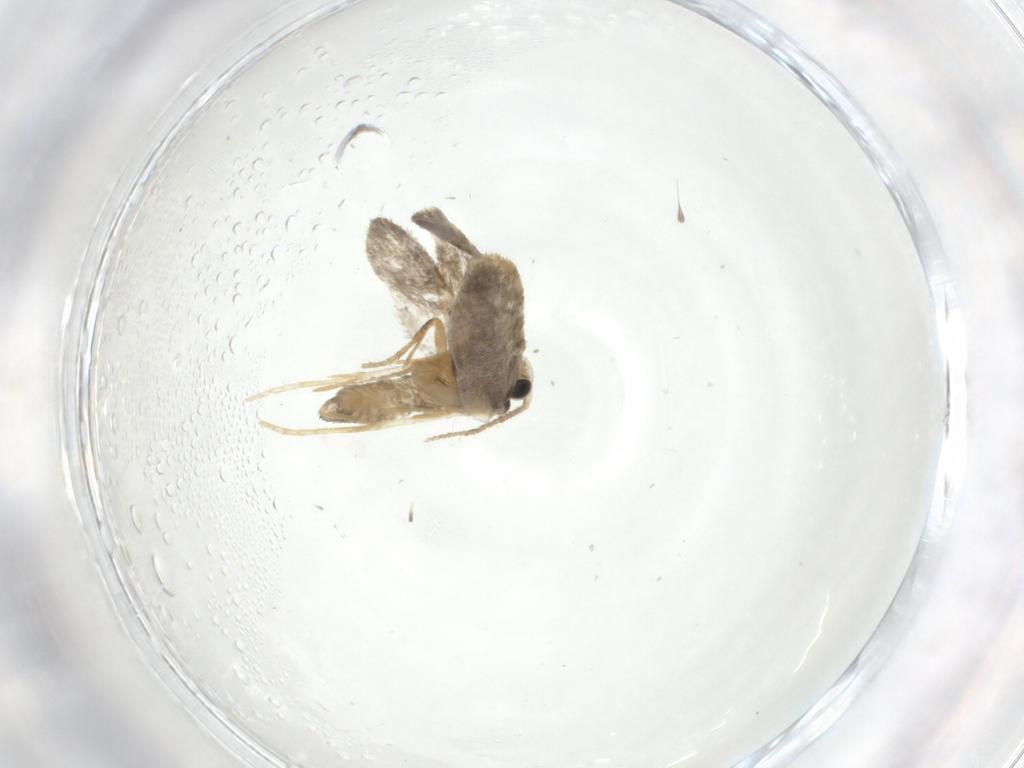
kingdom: Animalia
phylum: Arthropoda
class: Insecta
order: Lepidoptera
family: Psychidae
